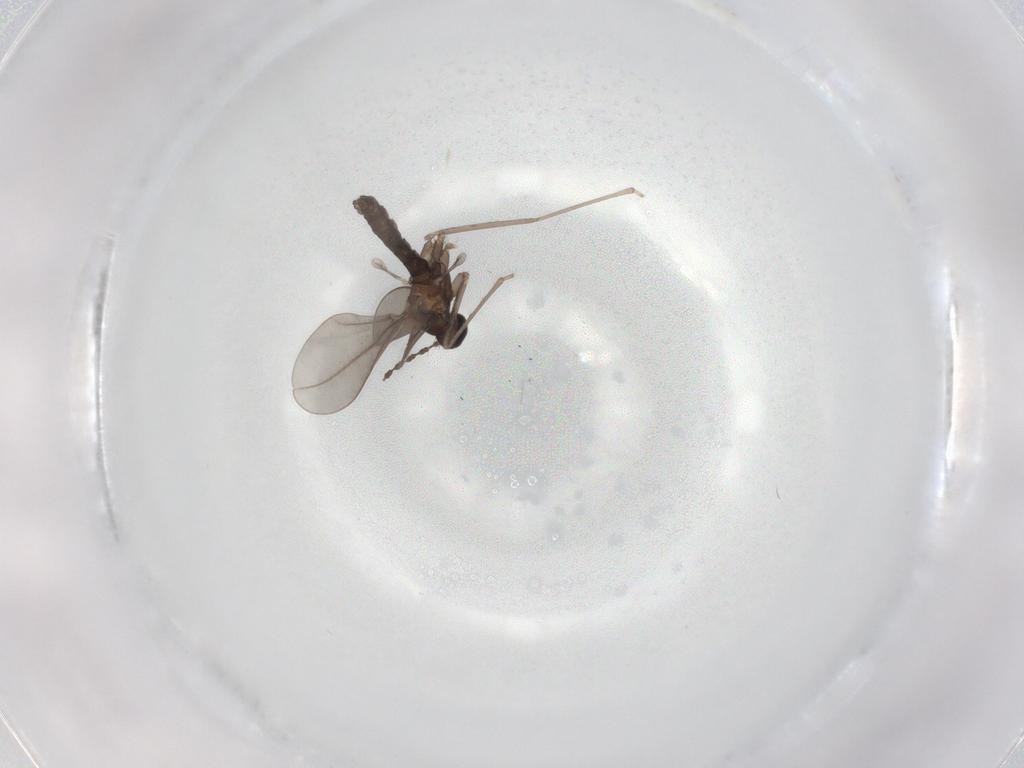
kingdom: Animalia
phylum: Arthropoda
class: Insecta
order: Diptera
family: Cecidomyiidae
